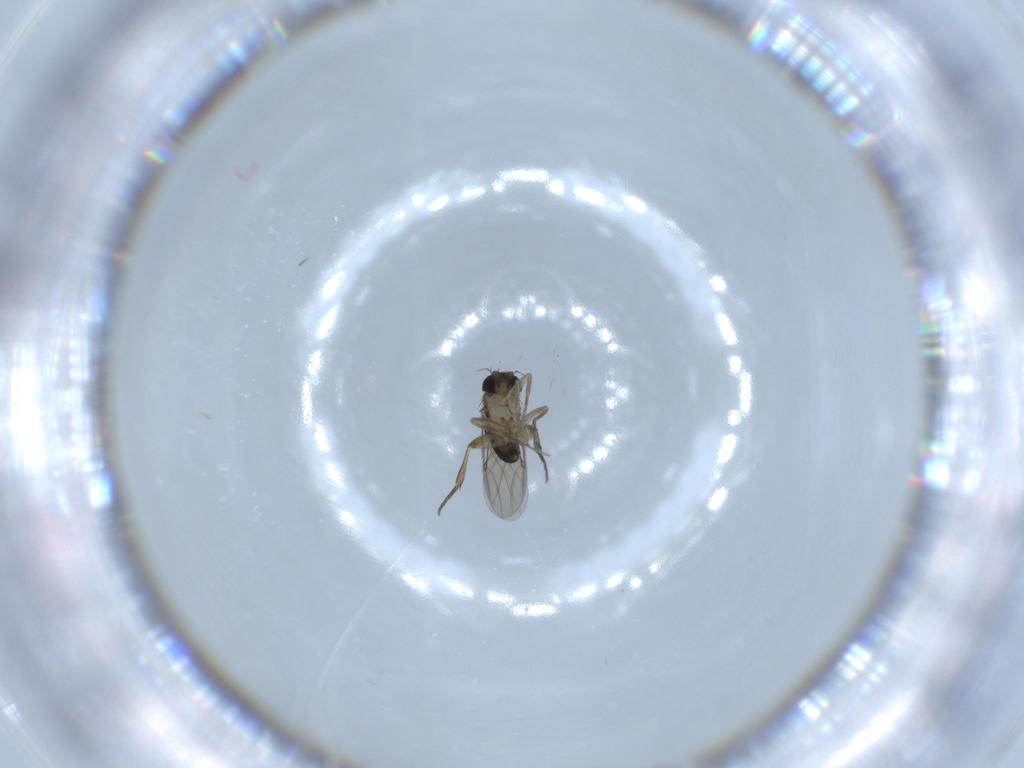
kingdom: Animalia
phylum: Arthropoda
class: Insecta
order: Diptera
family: Phoridae
